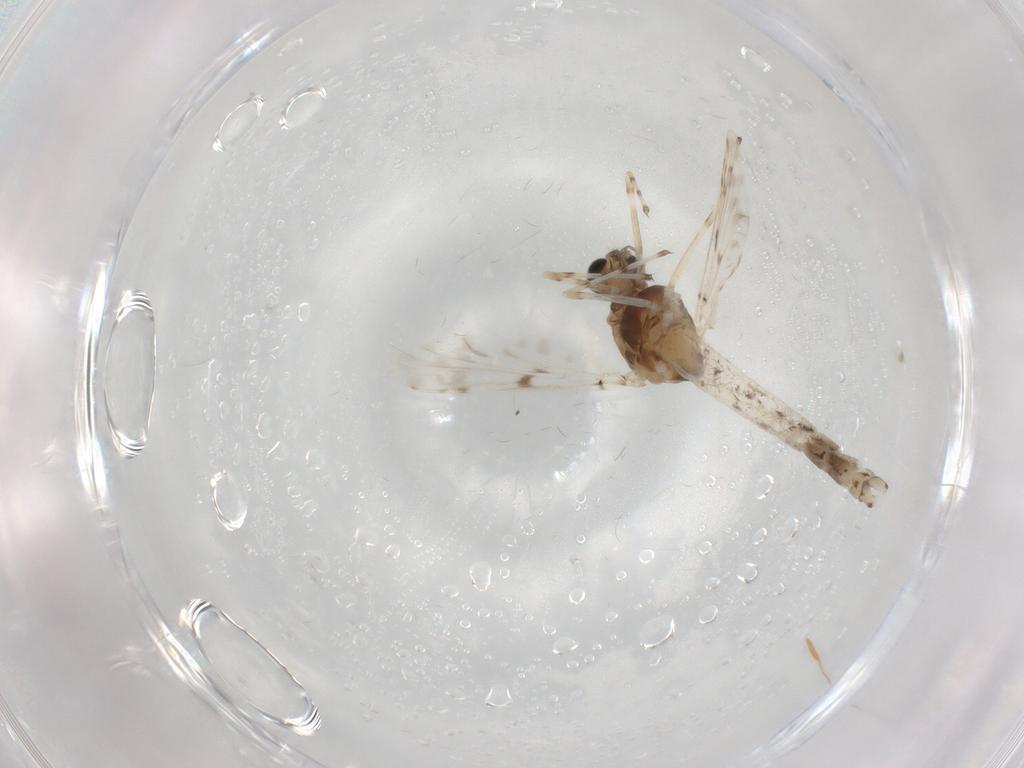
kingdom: Animalia
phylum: Arthropoda
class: Insecta
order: Diptera
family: Chironomidae
